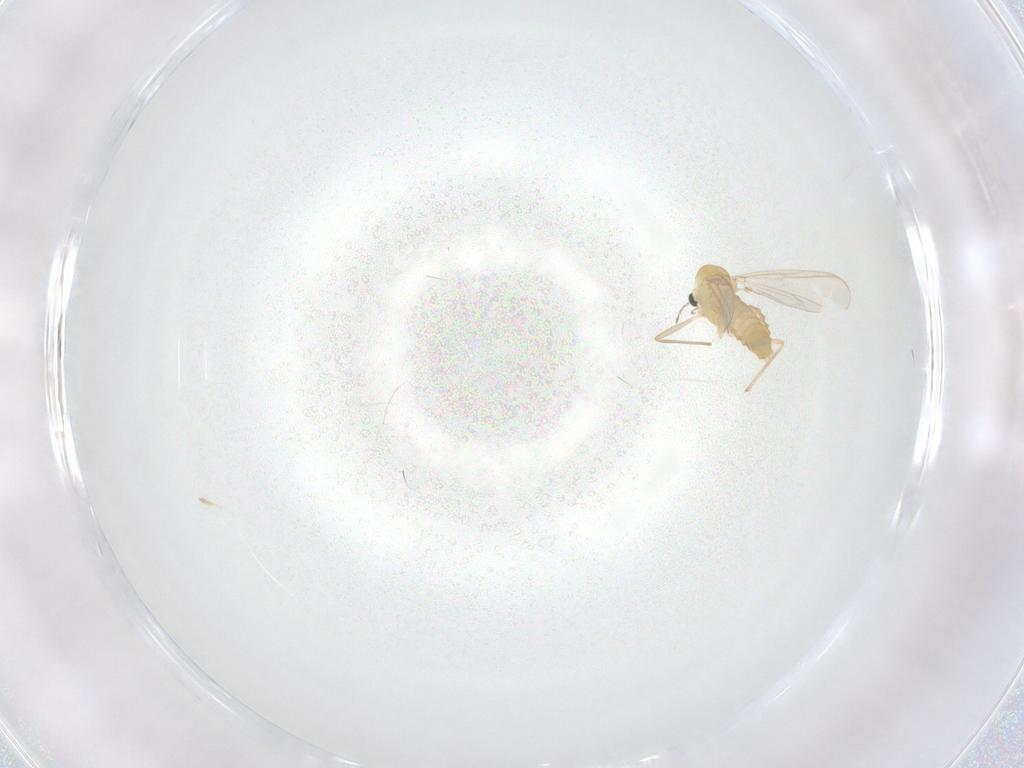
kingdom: Animalia
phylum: Arthropoda
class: Insecta
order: Diptera
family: Chironomidae
